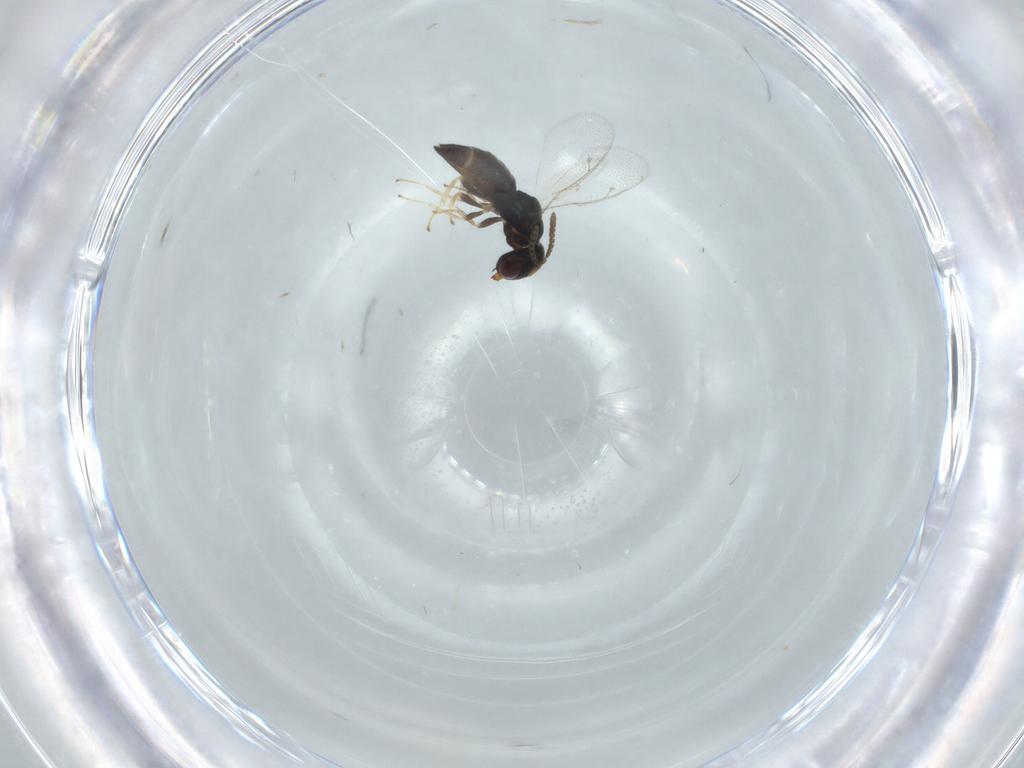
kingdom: Animalia
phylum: Arthropoda
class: Insecta
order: Hymenoptera
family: Pteromalidae
